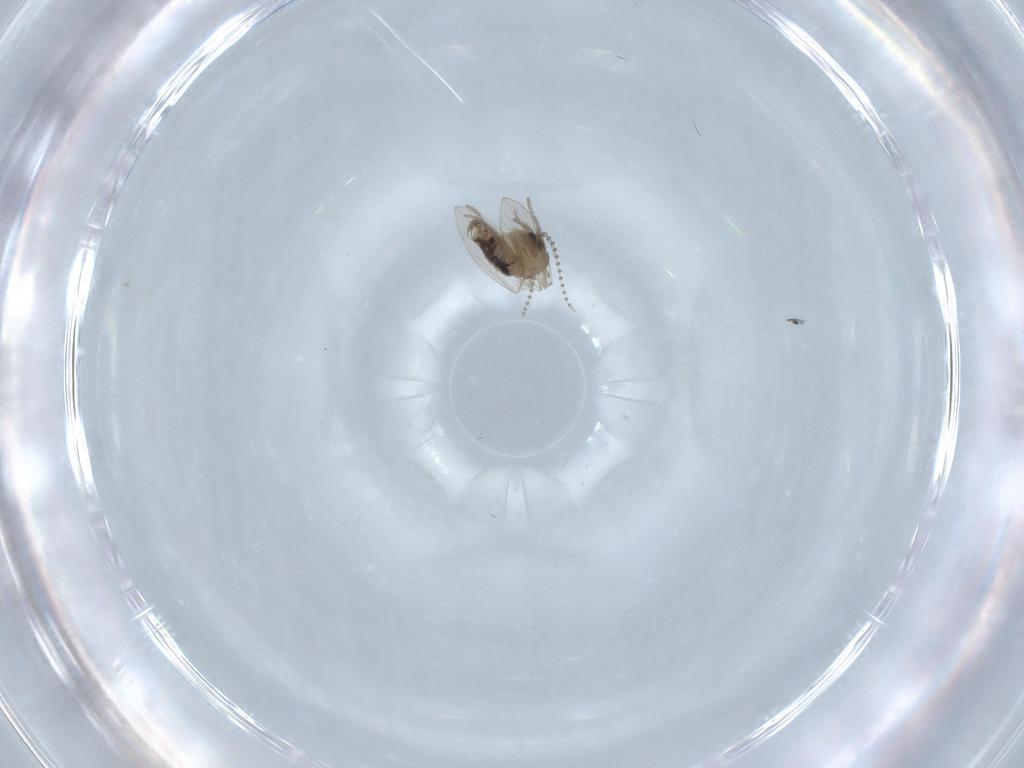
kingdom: Animalia
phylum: Arthropoda
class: Insecta
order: Diptera
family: Psychodidae
